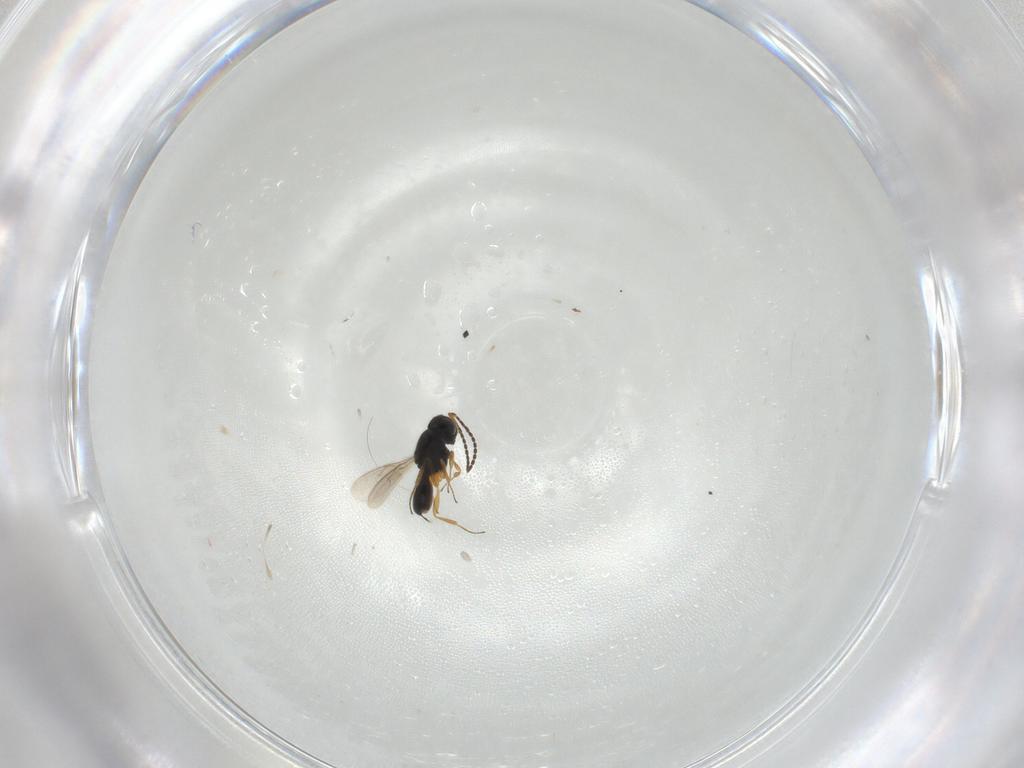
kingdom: Animalia
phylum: Arthropoda
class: Insecta
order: Hymenoptera
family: Scelionidae
